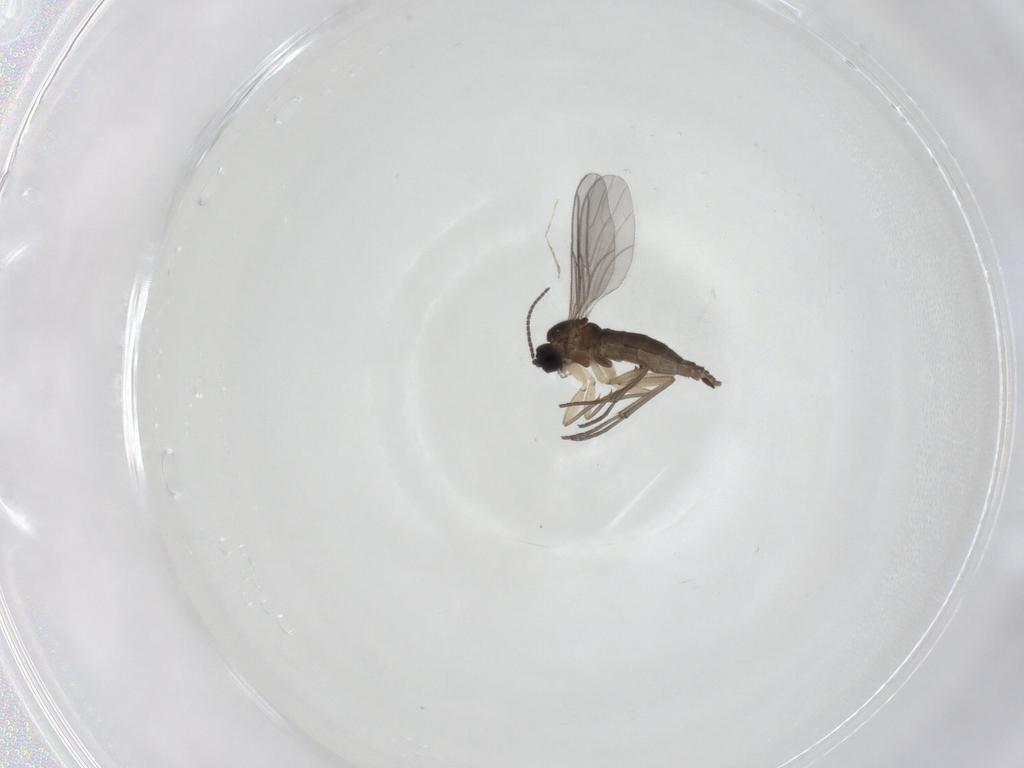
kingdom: Animalia
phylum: Arthropoda
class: Insecta
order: Diptera
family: Sciaridae
